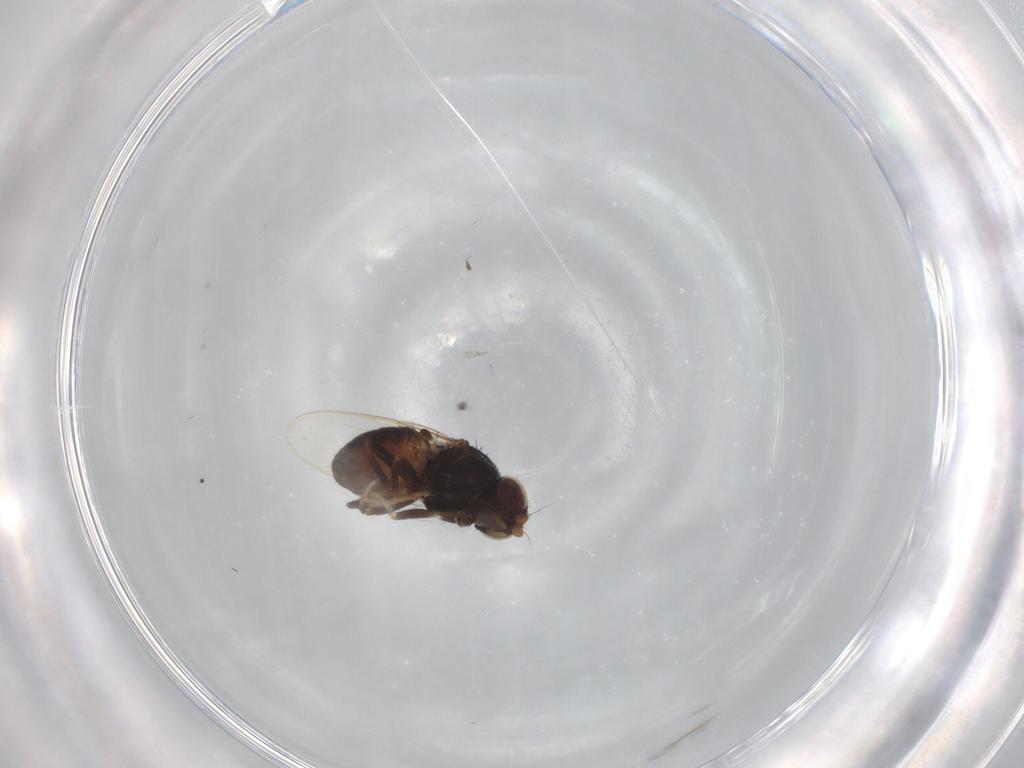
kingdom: Animalia
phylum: Arthropoda
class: Insecta
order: Diptera
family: Chloropidae
